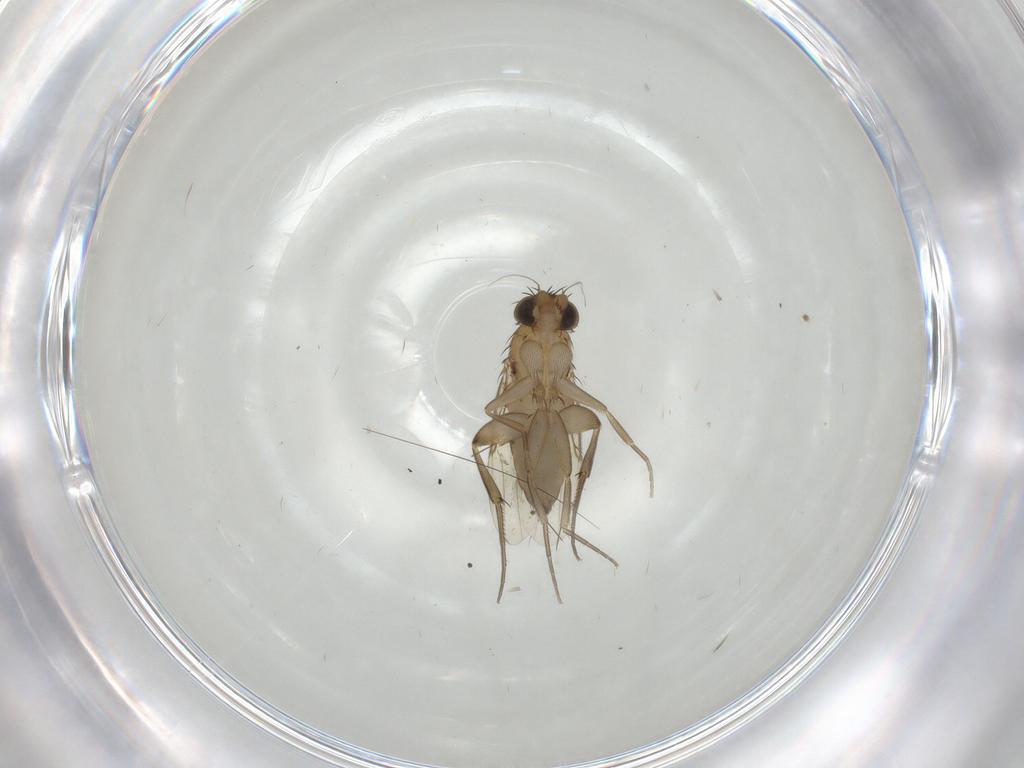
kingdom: Animalia
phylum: Arthropoda
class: Insecta
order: Diptera
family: Phoridae
